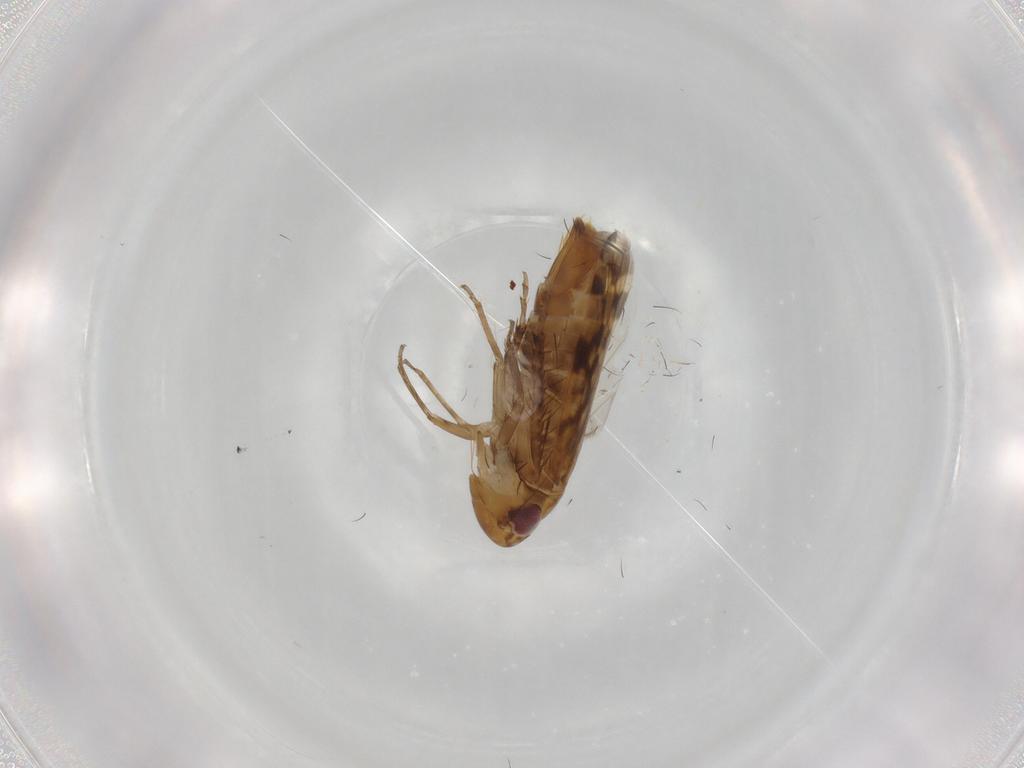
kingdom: Animalia
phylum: Arthropoda
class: Insecta
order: Hemiptera
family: Cicadellidae
